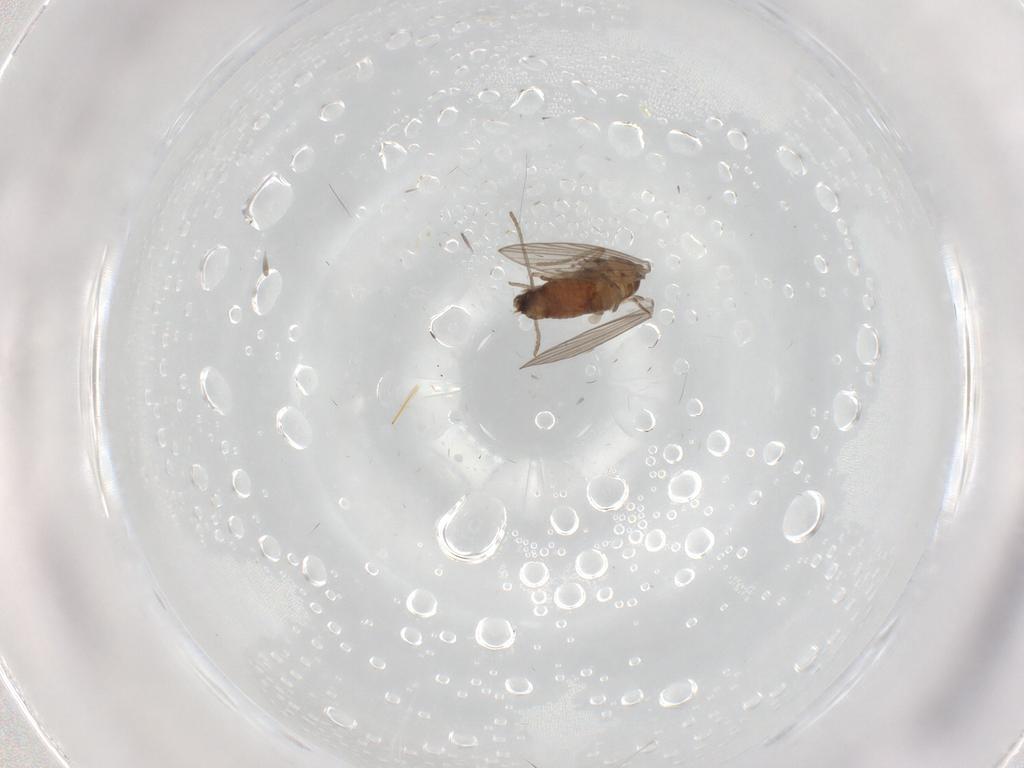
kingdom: Animalia
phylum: Arthropoda
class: Insecta
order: Diptera
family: Psychodidae
